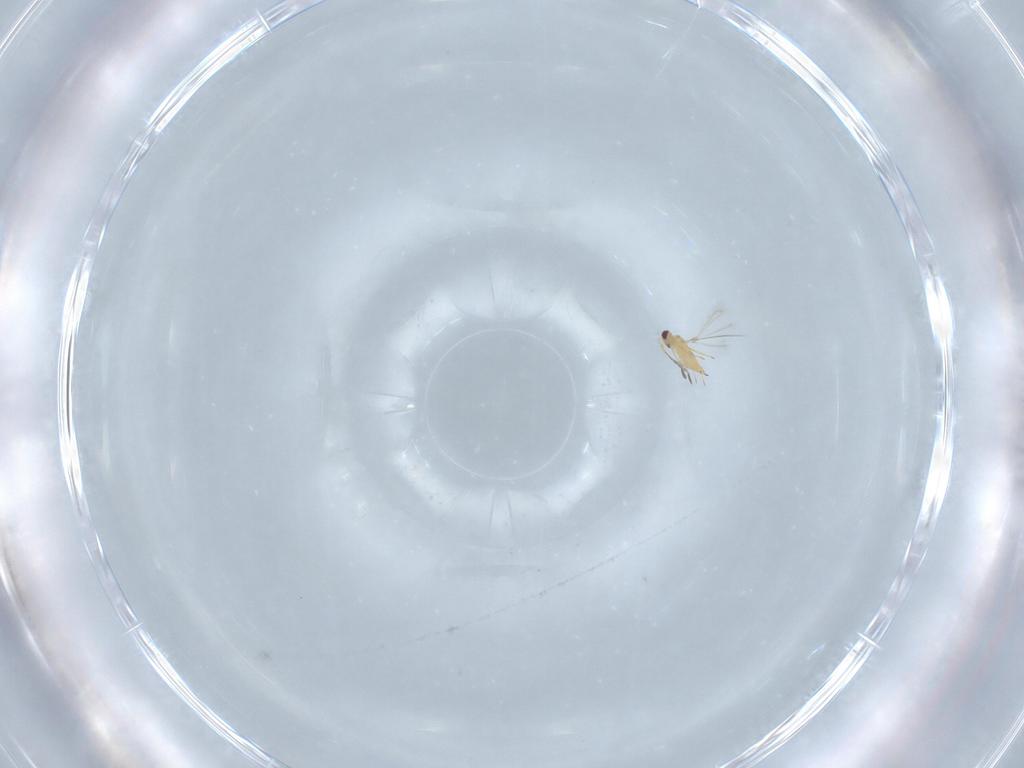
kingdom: Animalia
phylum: Arthropoda
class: Insecta
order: Hymenoptera
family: Mymaridae
